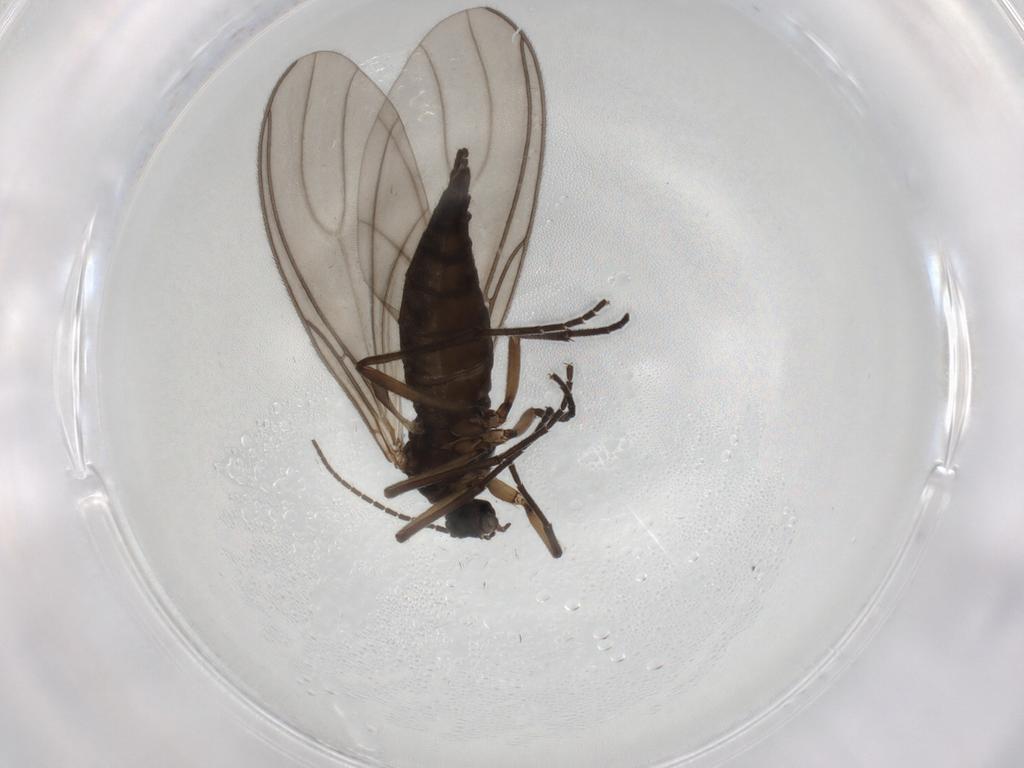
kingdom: Animalia
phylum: Arthropoda
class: Insecta
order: Diptera
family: Sciaridae
